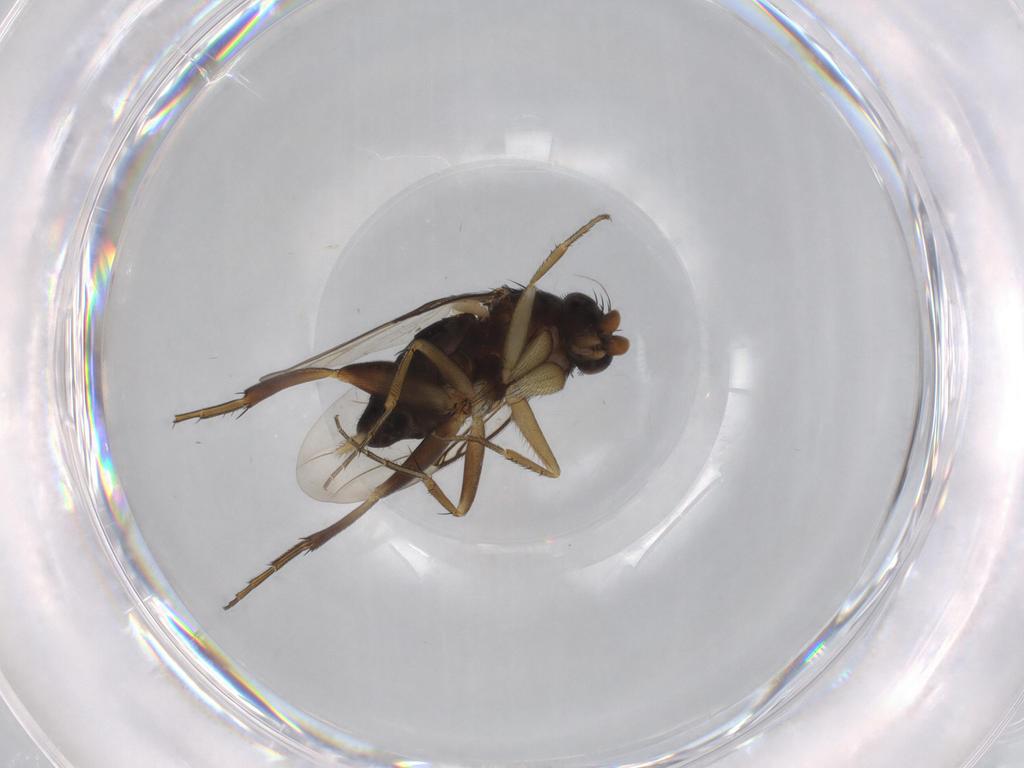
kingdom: Animalia
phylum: Arthropoda
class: Insecta
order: Diptera
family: Phoridae
